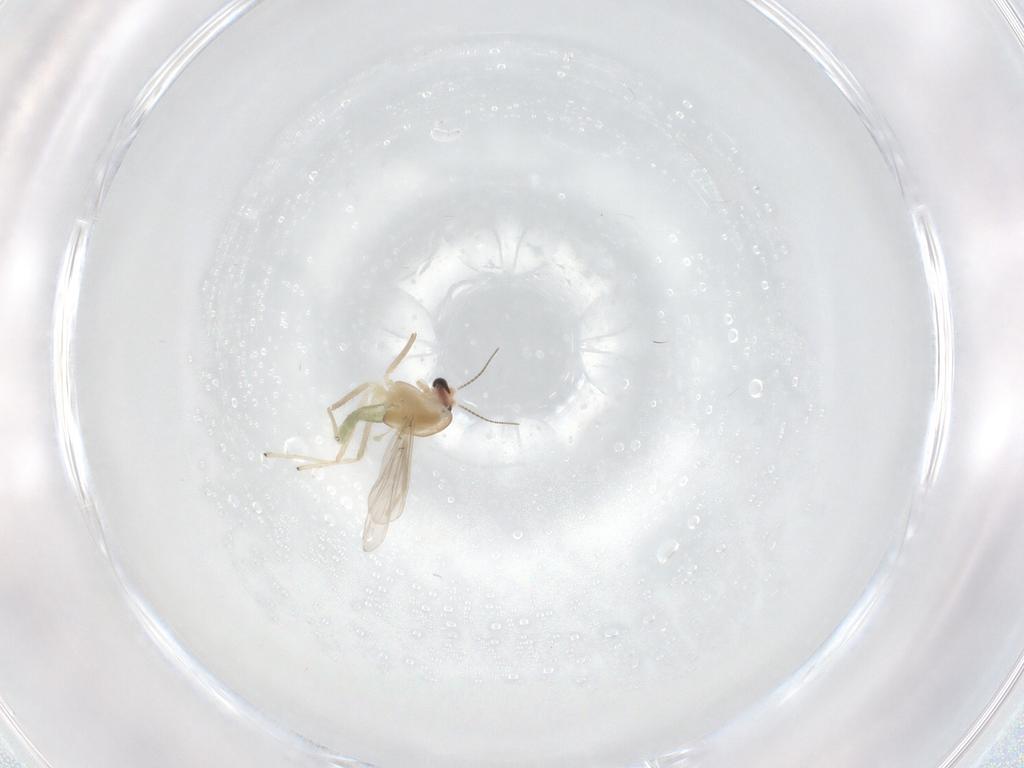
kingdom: Animalia
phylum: Arthropoda
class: Insecta
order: Diptera
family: Cecidomyiidae
